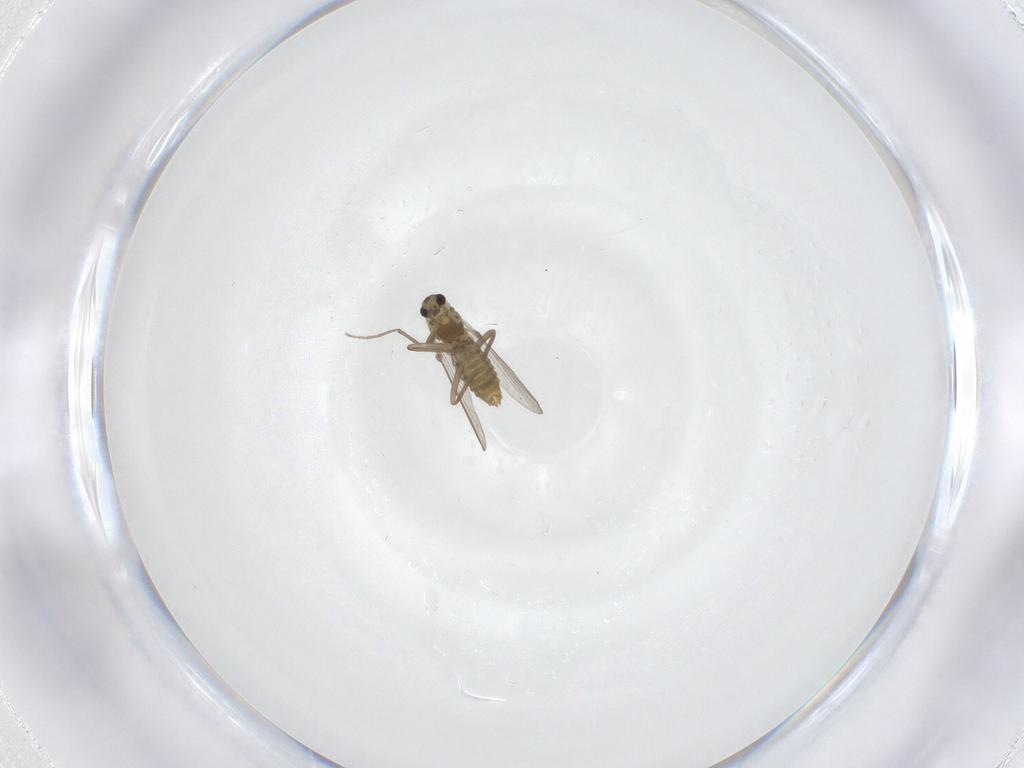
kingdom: Animalia
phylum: Arthropoda
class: Insecta
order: Diptera
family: Chironomidae
